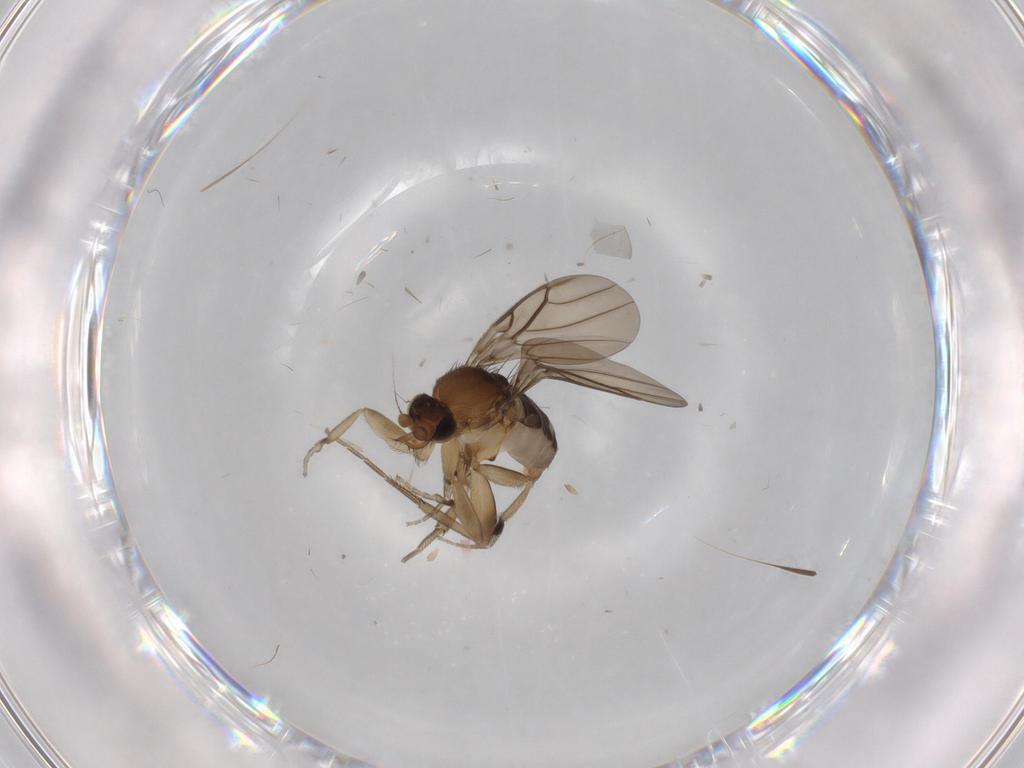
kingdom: Animalia
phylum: Arthropoda
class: Insecta
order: Diptera
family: Phoridae
